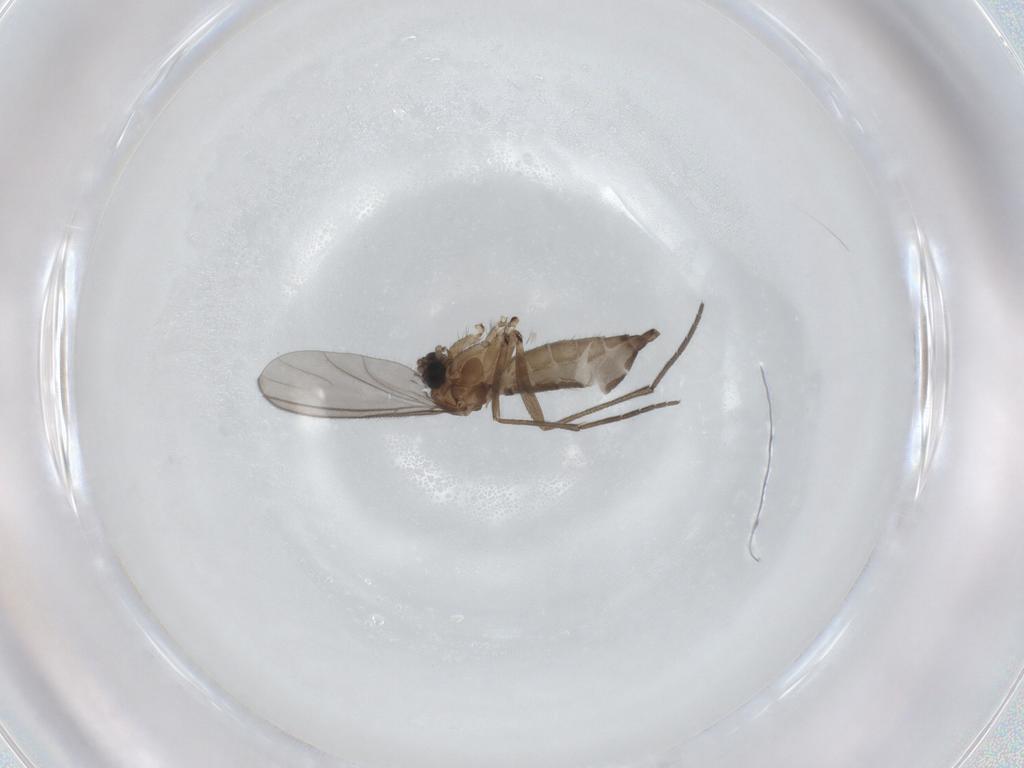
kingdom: Animalia
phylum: Arthropoda
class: Insecta
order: Diptera
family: Sciaridae
